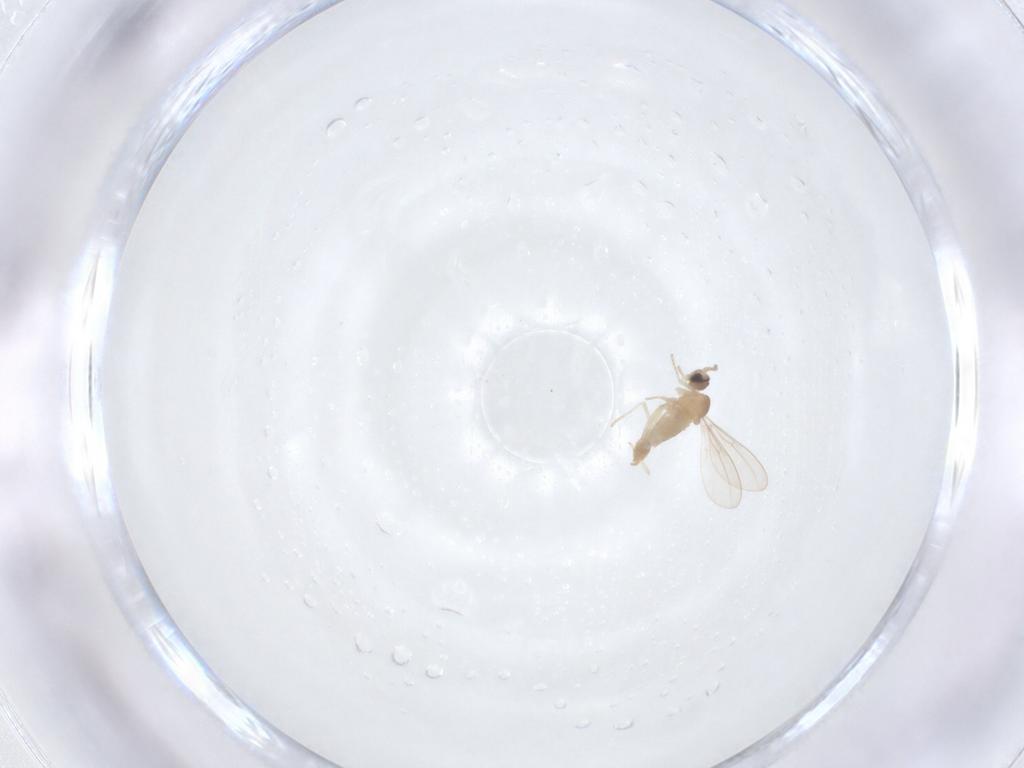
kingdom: Animalia
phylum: Arthropoda
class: Insecta
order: Diptera
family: Cecidomyiidae
